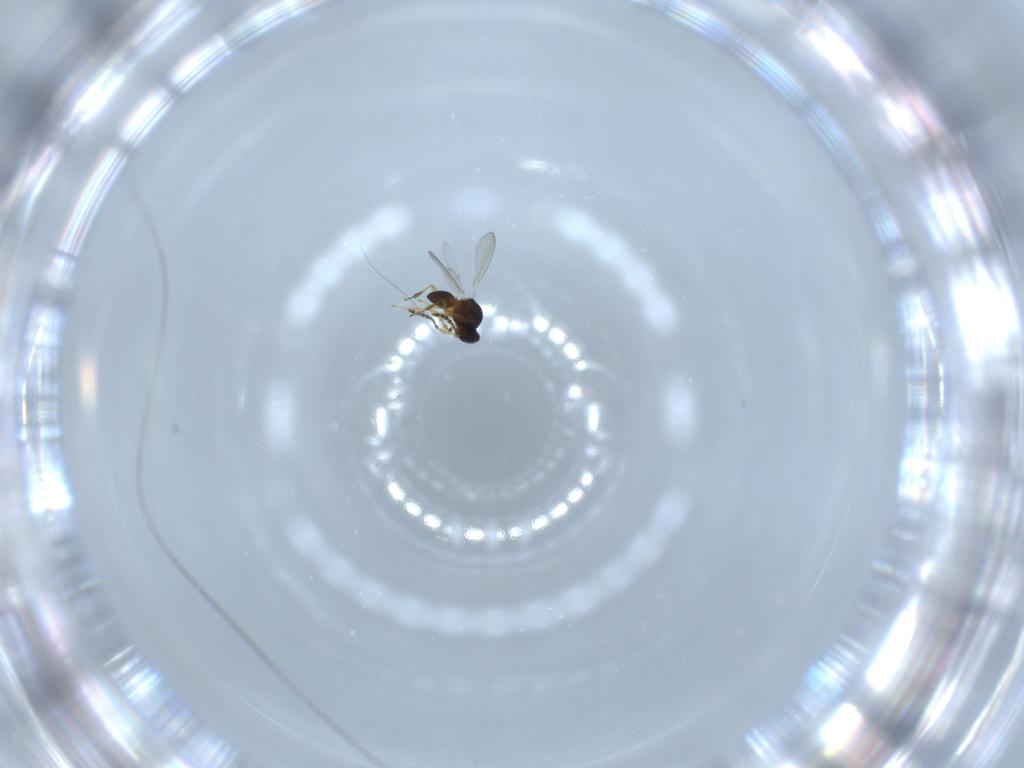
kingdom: Animalia
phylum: Arthropoda
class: Insecta
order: Hymenoptera
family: Platygastridae
